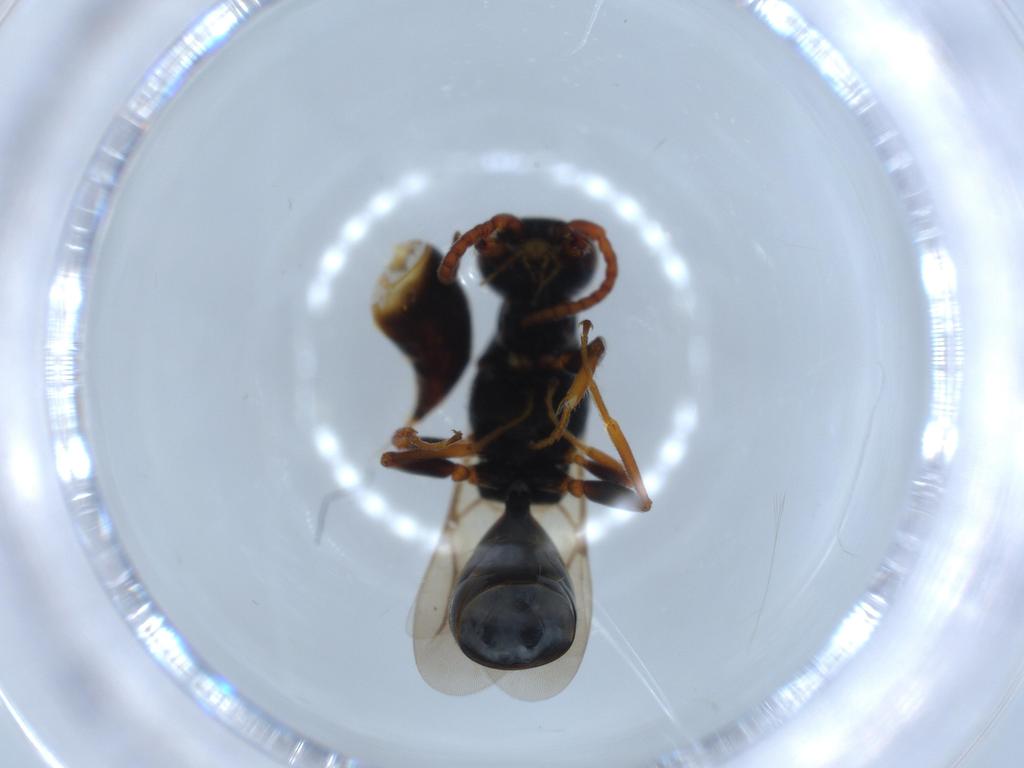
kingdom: Animalia
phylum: Arthropoda
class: Insecta
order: Hymenoptera
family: Bethylidae
